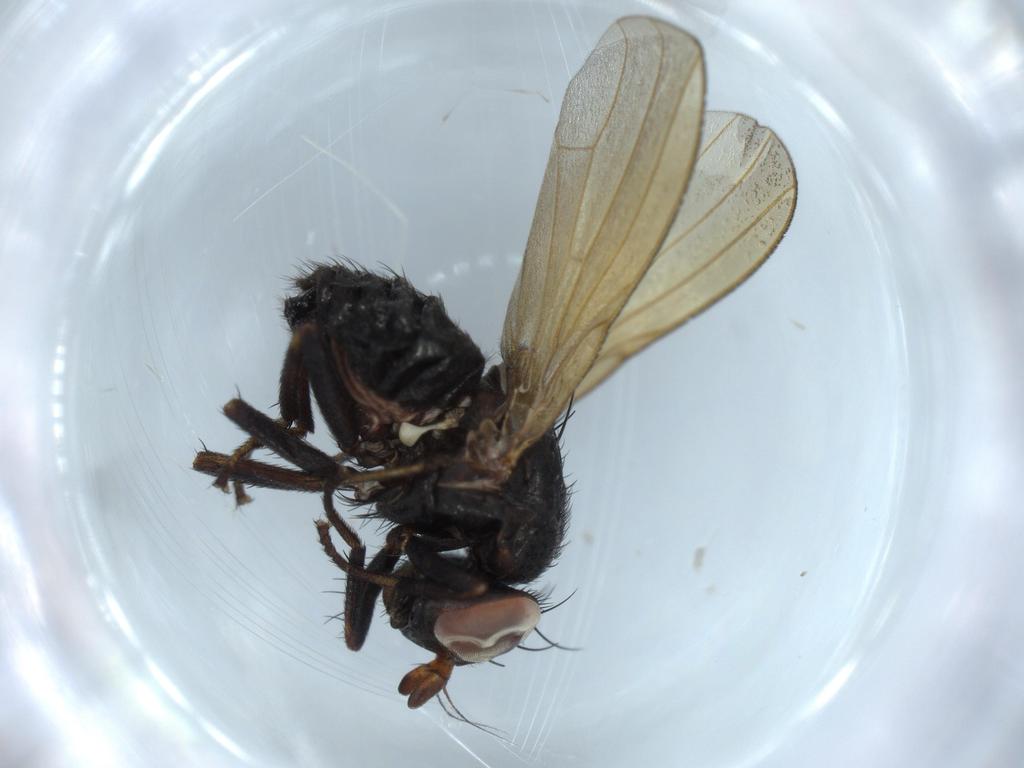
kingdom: Animalia
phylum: Arthropoda
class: Insecta
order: Diptera
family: Lauxaniidae
